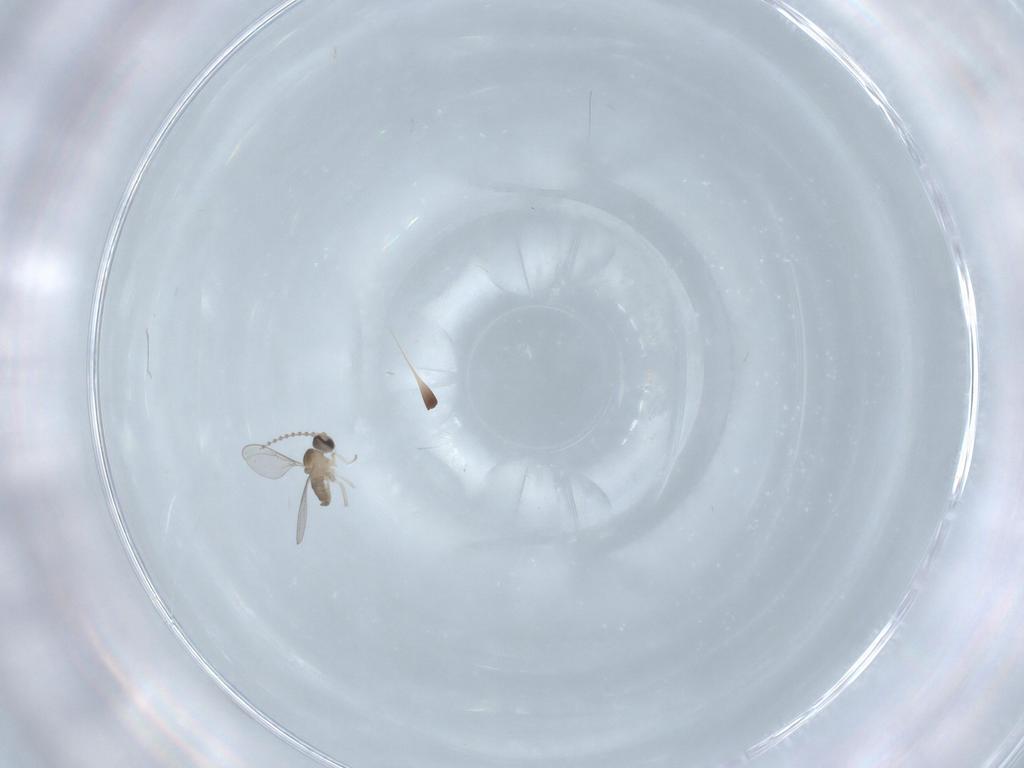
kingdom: Animalia
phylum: Arthropoda
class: Insecta
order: Diptera
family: Cecidomyiidae
